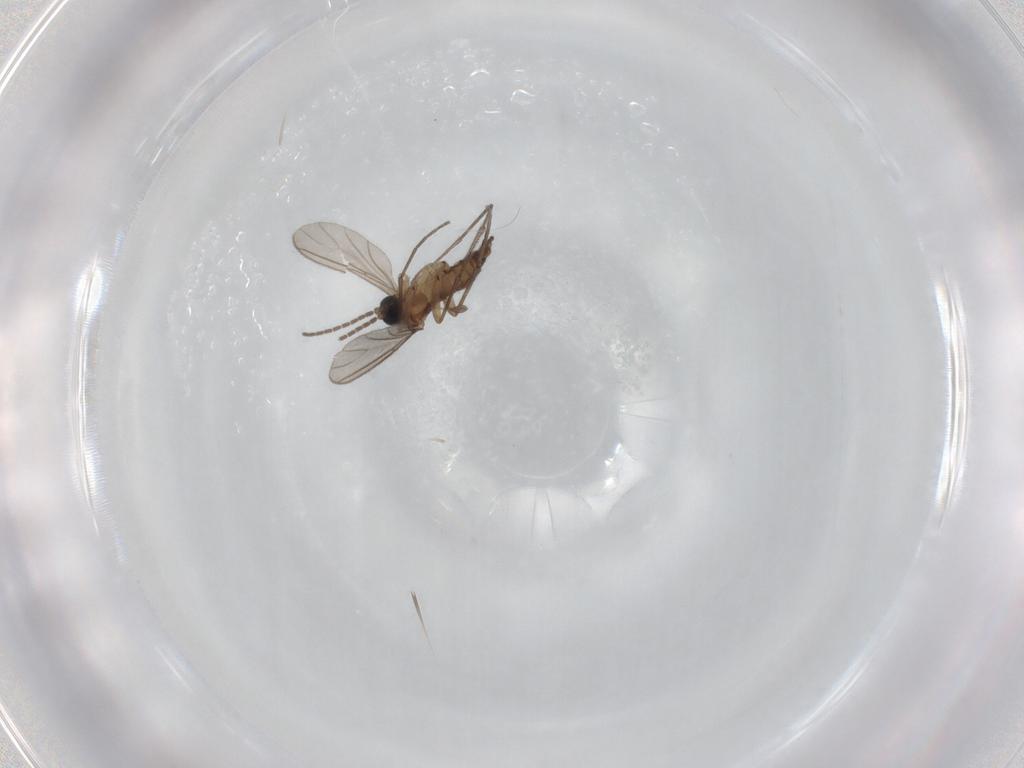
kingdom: Animalia
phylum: Arthropoda
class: Insecta
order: Diptera
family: Sciaridae
